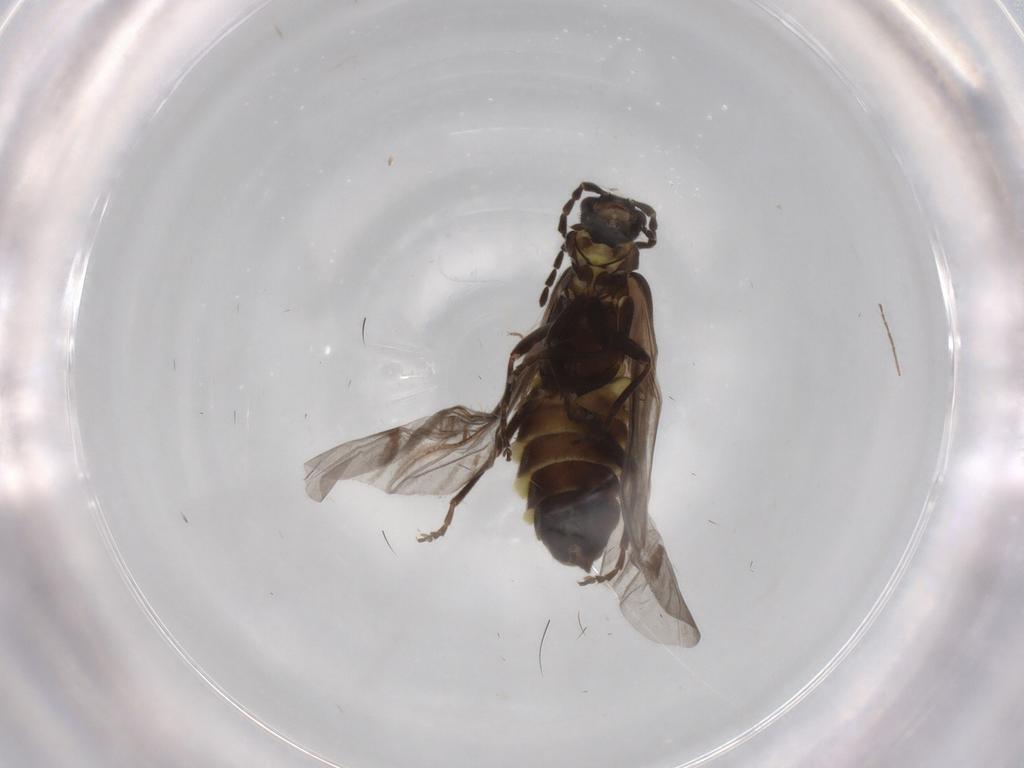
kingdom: Animalia
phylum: Arthropoda
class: Insecta
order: Coleoptera
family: Cantharidae
